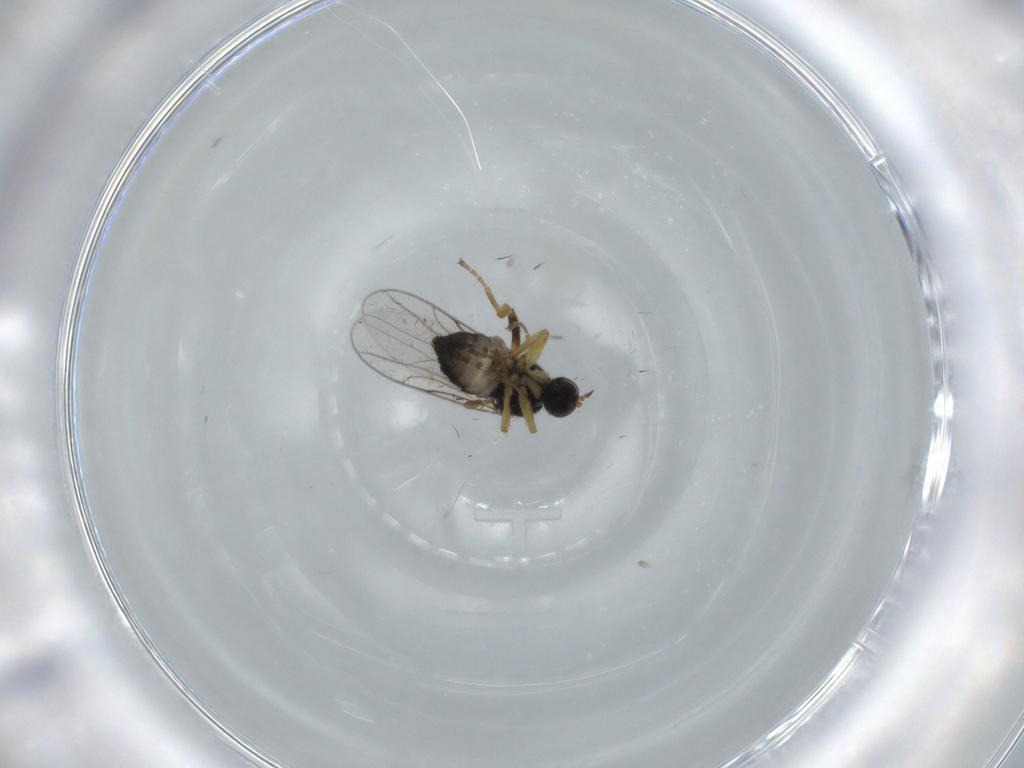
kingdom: Animalia
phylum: Arthropoda
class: Insecta
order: Diptera
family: Hybotidae
